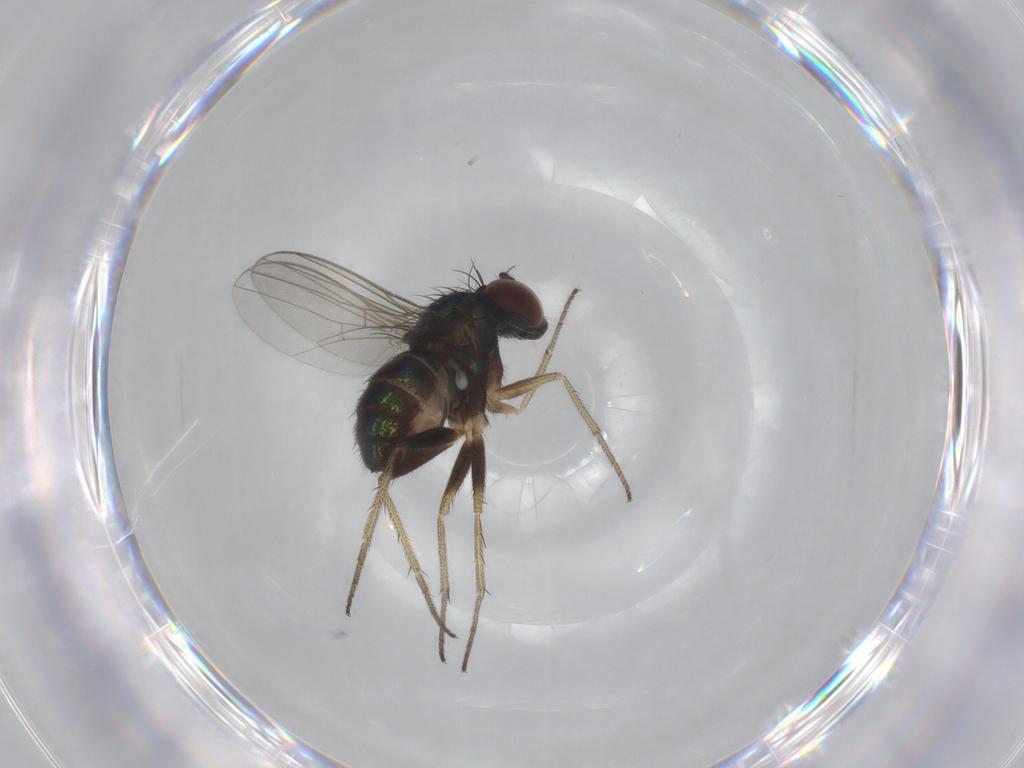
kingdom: Animalia
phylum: Arthropoda
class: Insecta
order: Diptera
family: Dolichopodidae
